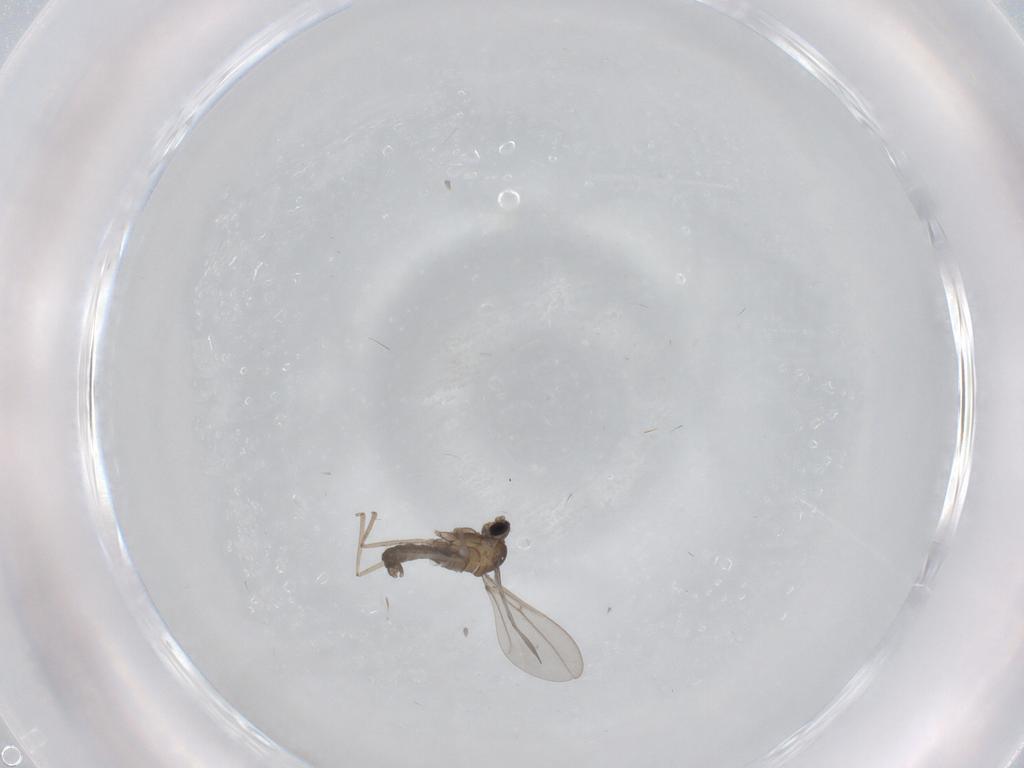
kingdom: Animalia
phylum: Arthropoda
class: Insecta
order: Diptera
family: Cecidomyiidae
